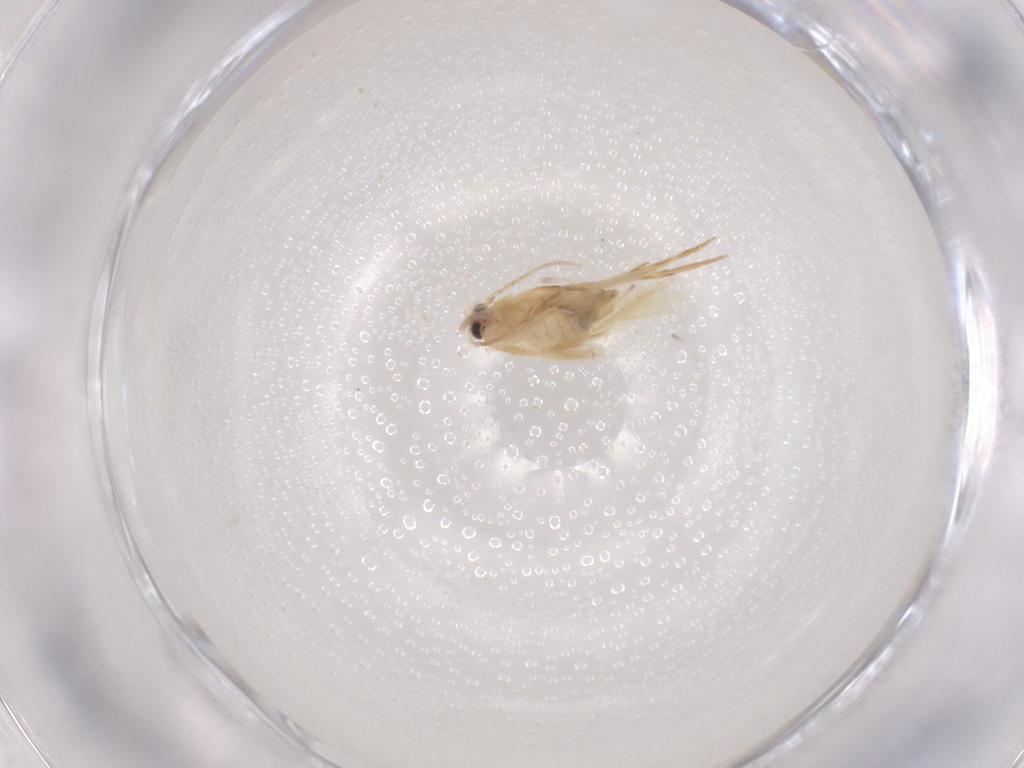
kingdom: Animalia
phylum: Arthropoda
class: Insecta
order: Lepidoptera
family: Nepticulidae
